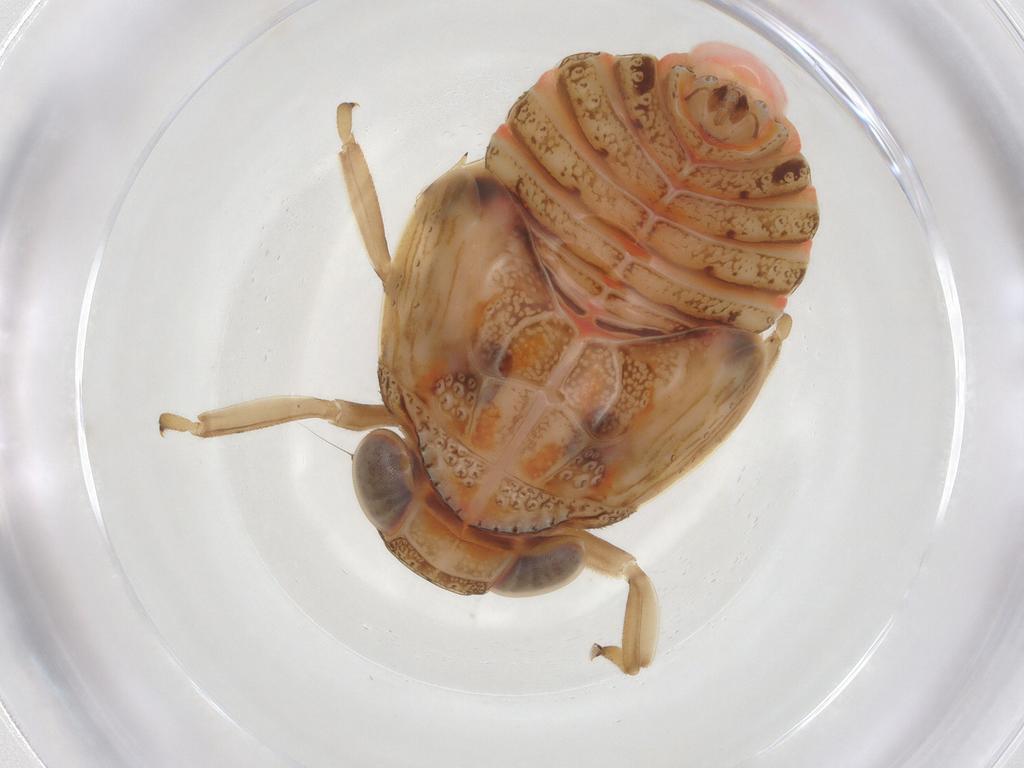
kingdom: Animalia
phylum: Arthropoda
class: Insecta
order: Hemiptera
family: Issidae
